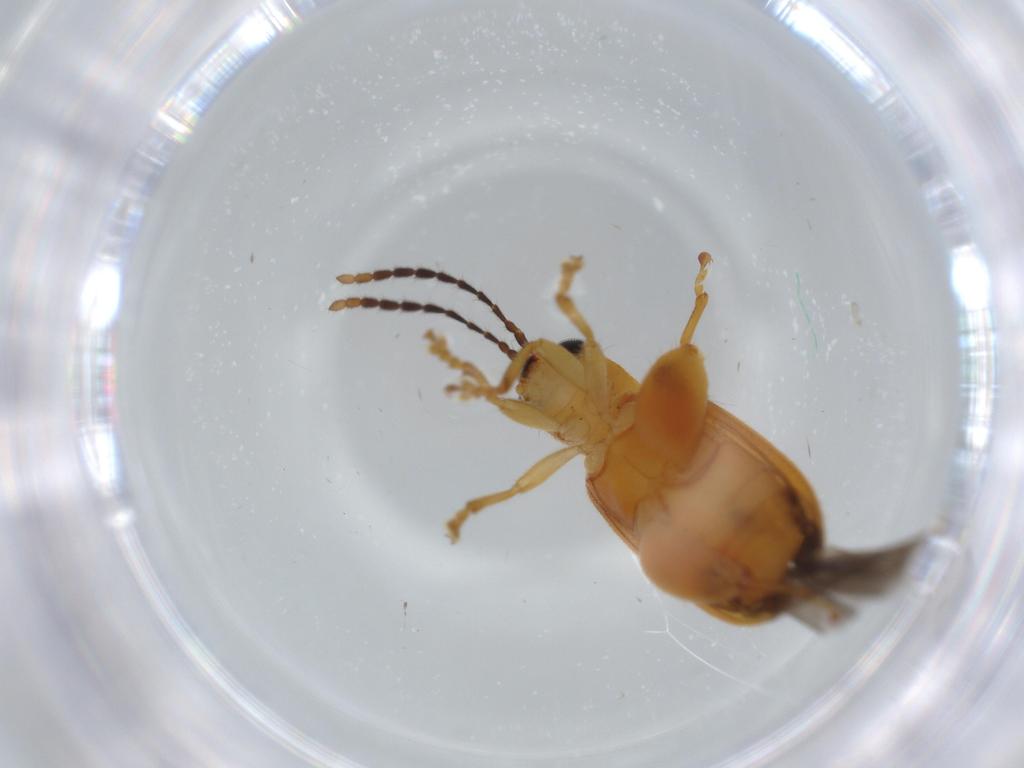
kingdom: Animalia
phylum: Arthropoda
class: Insecta
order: Coleoptera
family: Chrysomelidae
